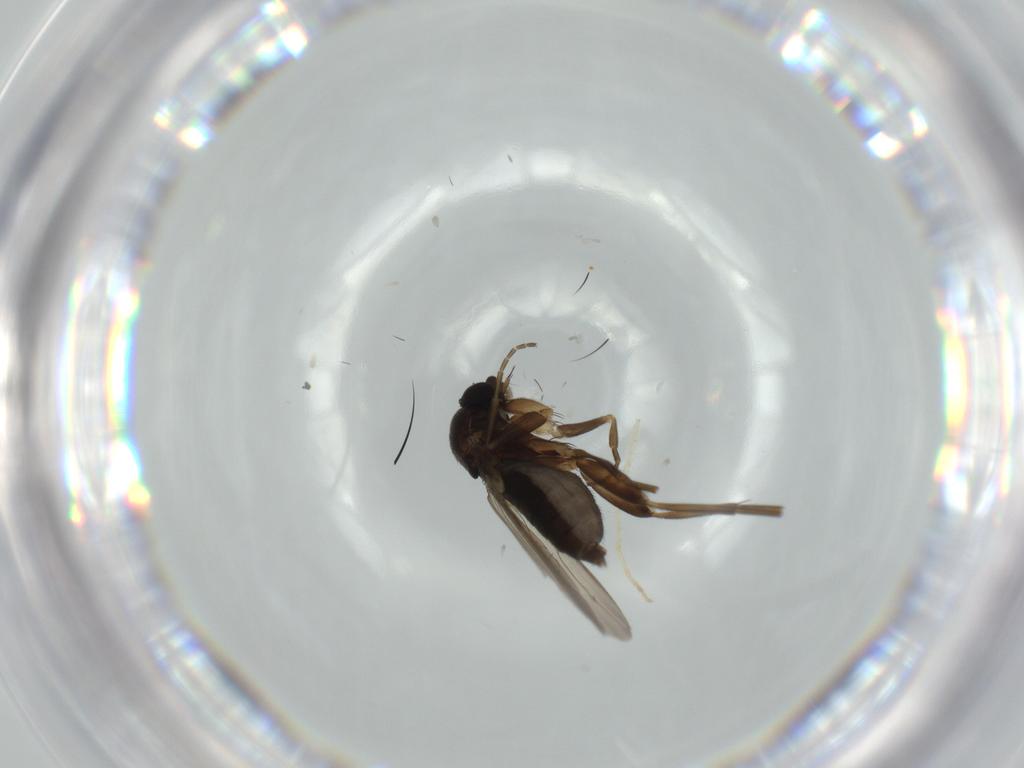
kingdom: Animalia
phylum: Arthropoda
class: Insecta
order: Diptera
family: Phoridae
